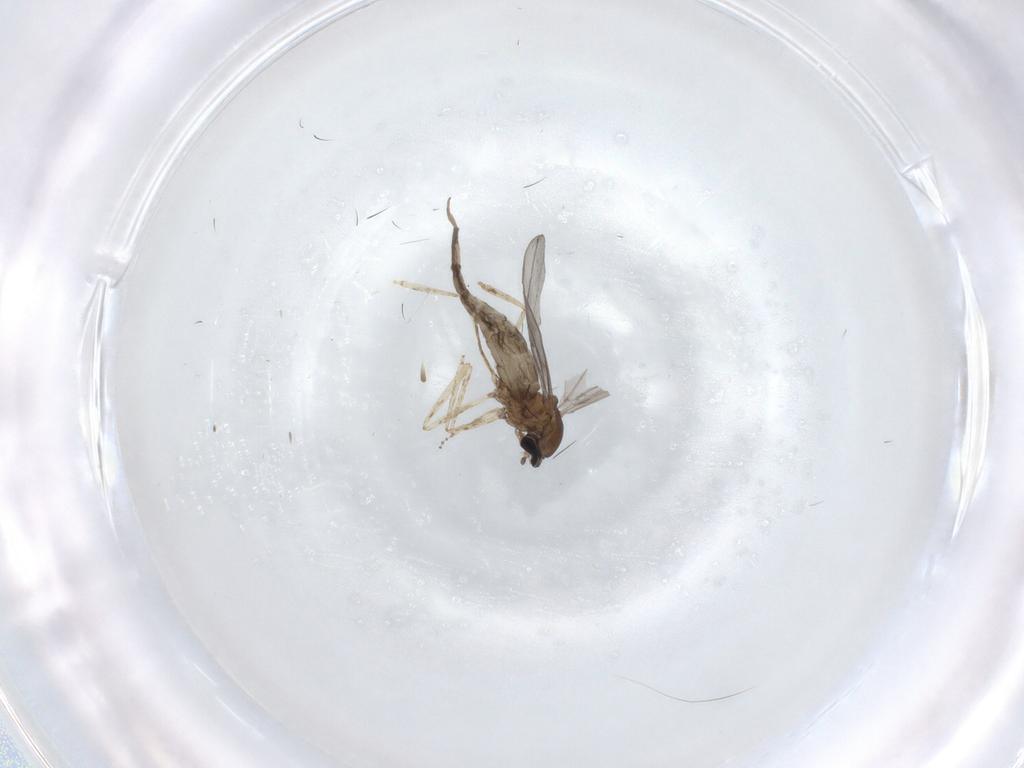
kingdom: Animalia
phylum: Arthropoda
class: Insecta
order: Diptera
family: Cecidomyiidae
